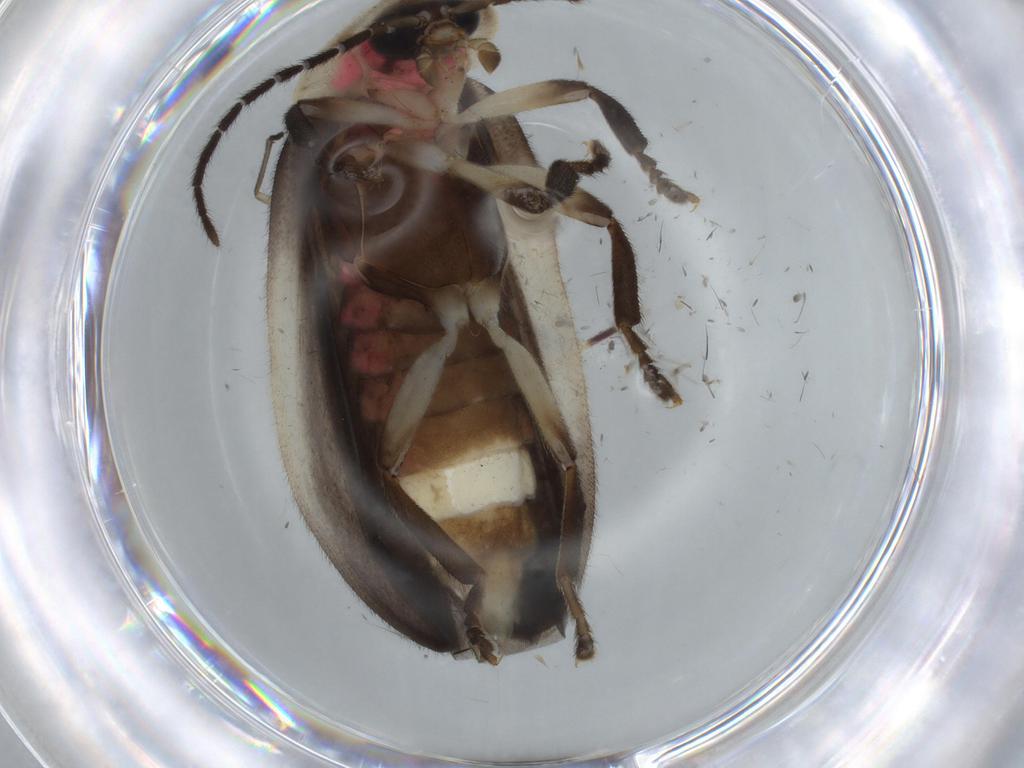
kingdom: Animalia
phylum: Arthropoda
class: Insecta
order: Coleoptera
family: Lampyridae
